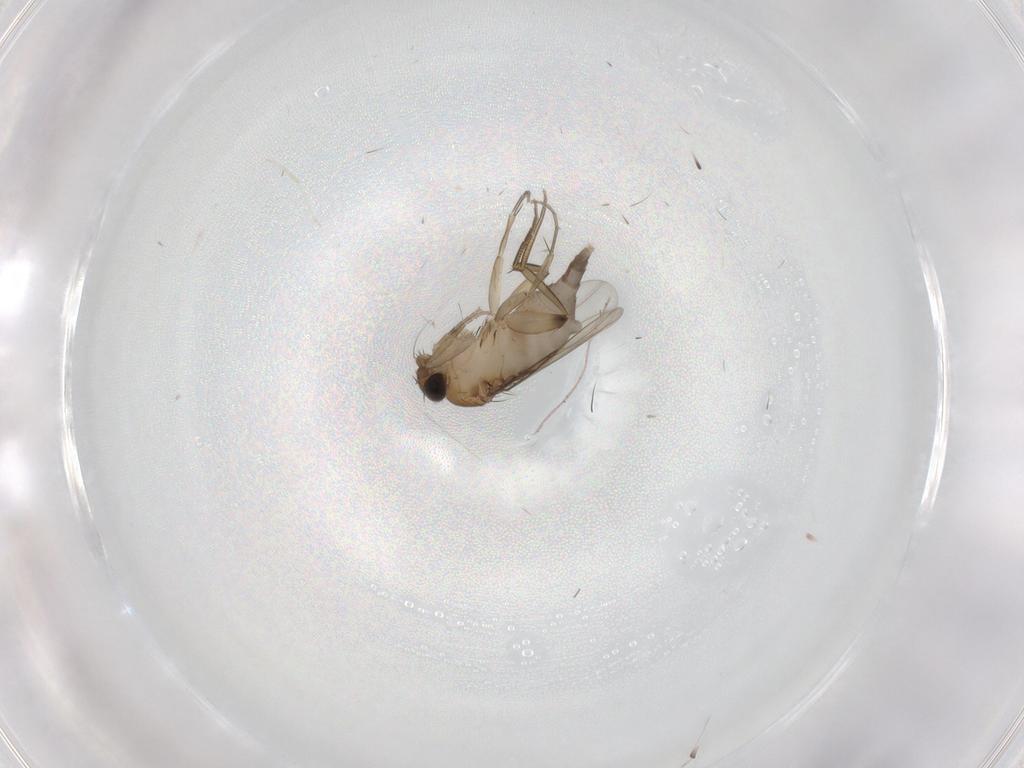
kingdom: Animalia
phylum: Arthropoda
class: Insecta
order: Diptera
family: Phoridae
